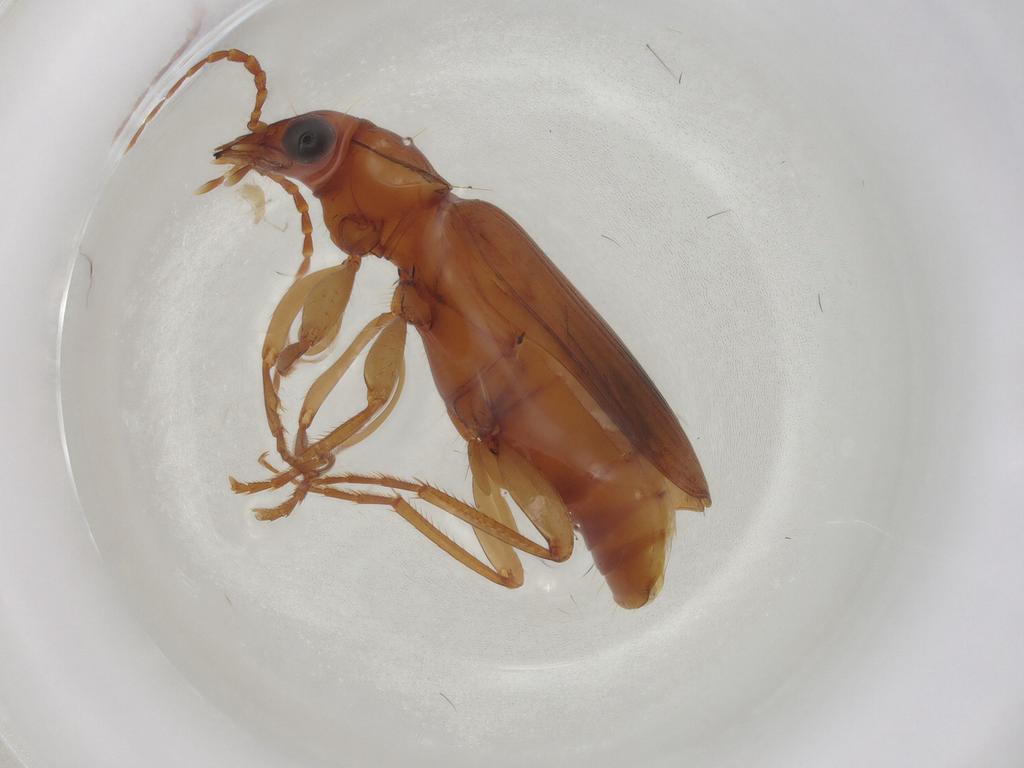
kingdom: Animalia
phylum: Arthropoda
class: Insecta
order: Coleoptera
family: Carabidae
